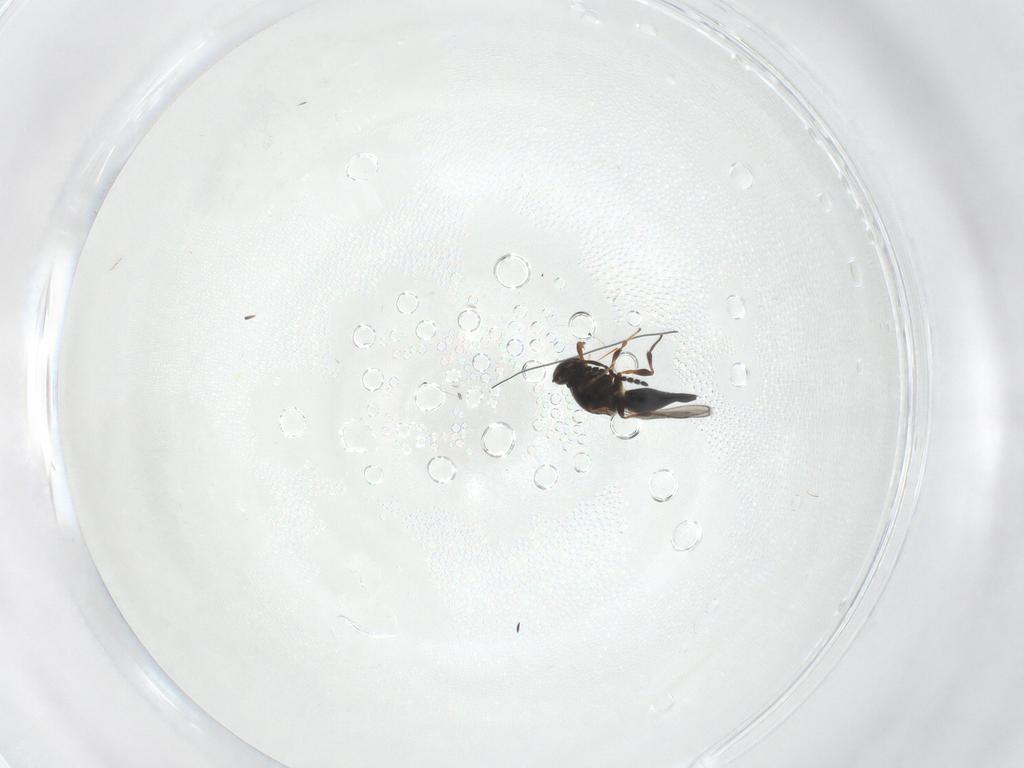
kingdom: Animalia
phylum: Arthropoda
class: Insecta
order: Hymenoptera
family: Platygastridae
